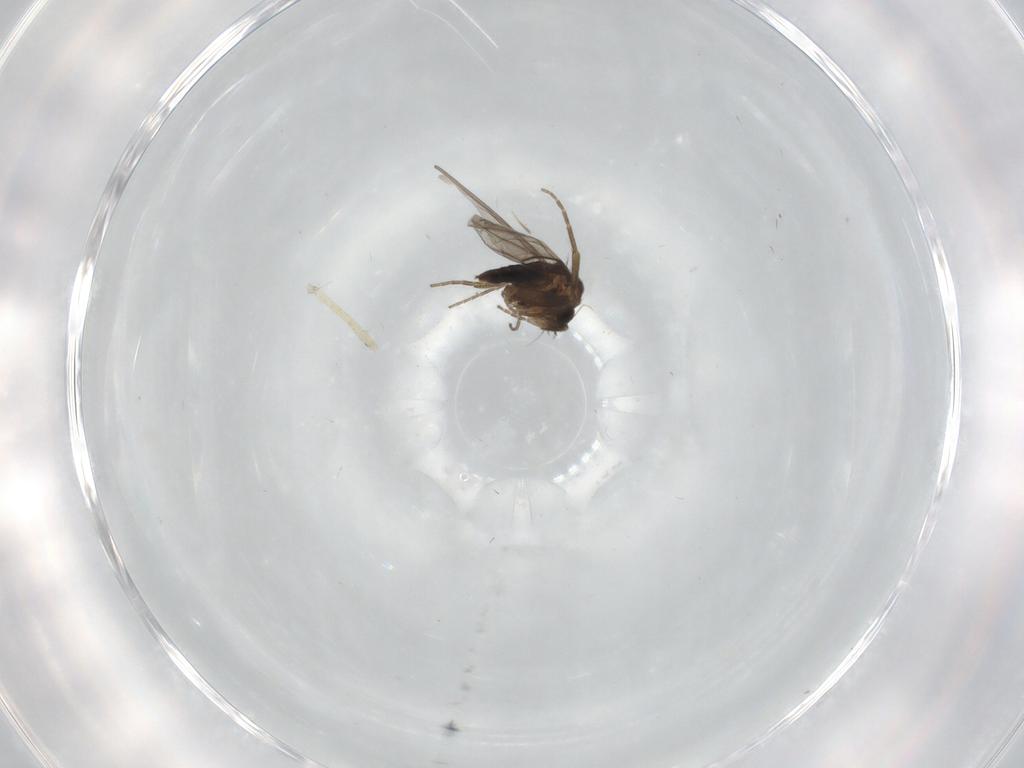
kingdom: Animalia
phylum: Arthropoda
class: Insecta
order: Diptera
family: Chironomidae
